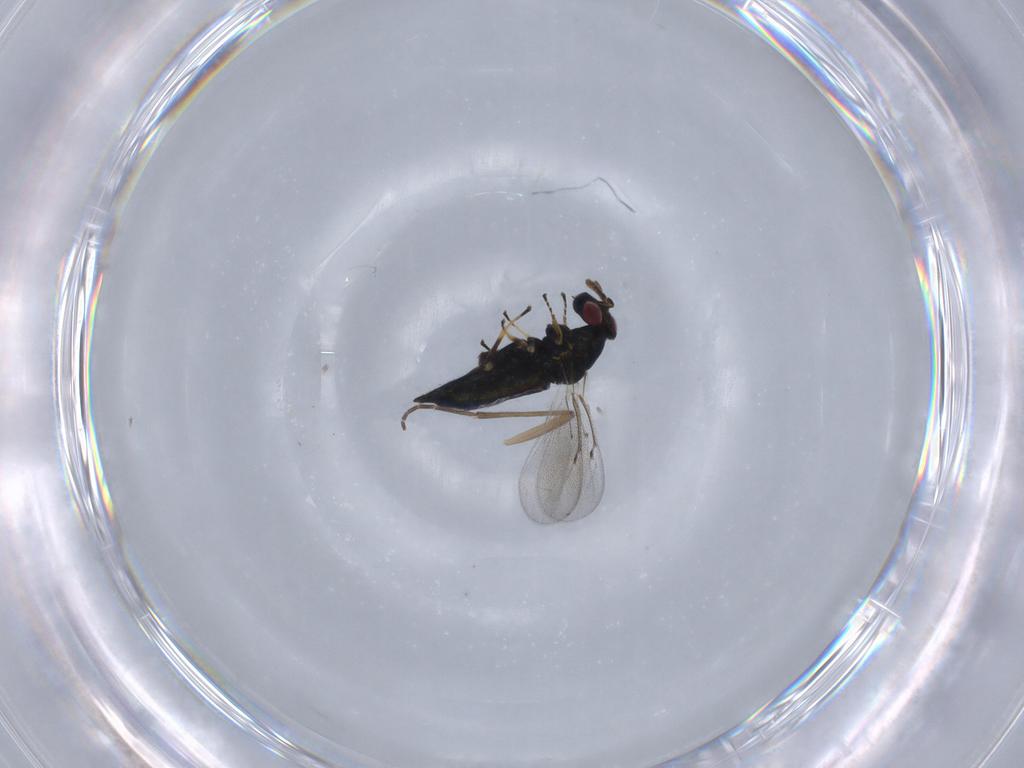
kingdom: Animalia
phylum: Arthropoda
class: Insecta
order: Hymenoptera
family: Eulophidae
